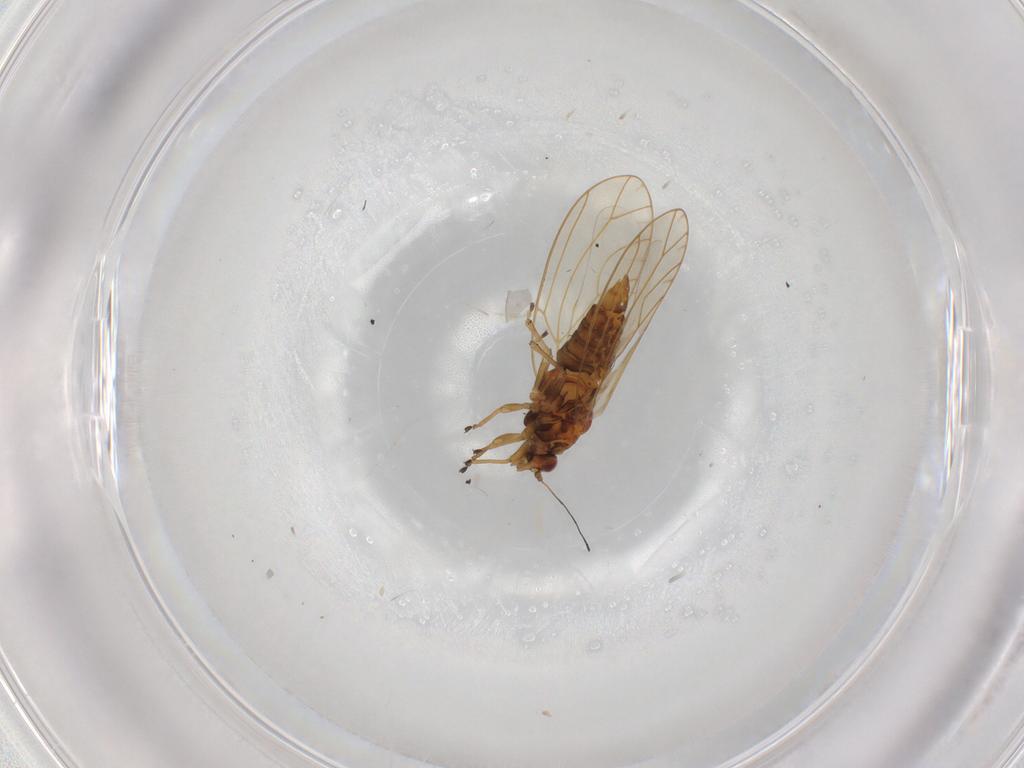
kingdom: Animalia
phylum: Arthropoda
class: Insecta
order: Hemiptera
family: Triozidae
